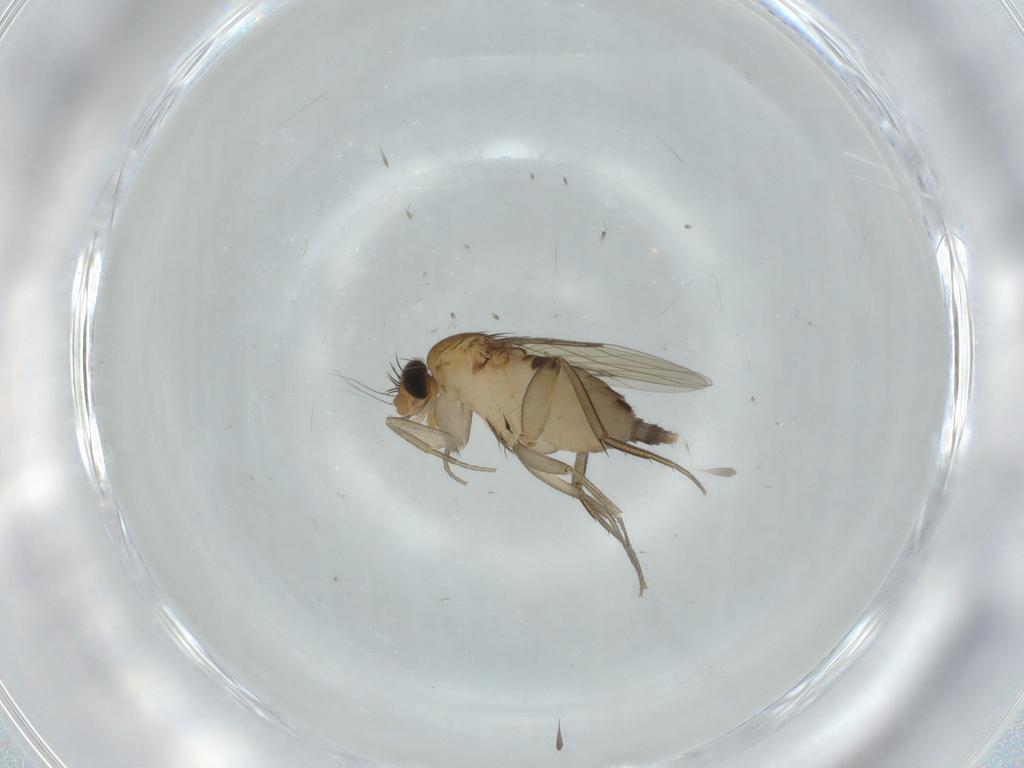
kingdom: Animalia
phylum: Arthropoda
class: Insecta
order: Diptera
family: Phoridae
